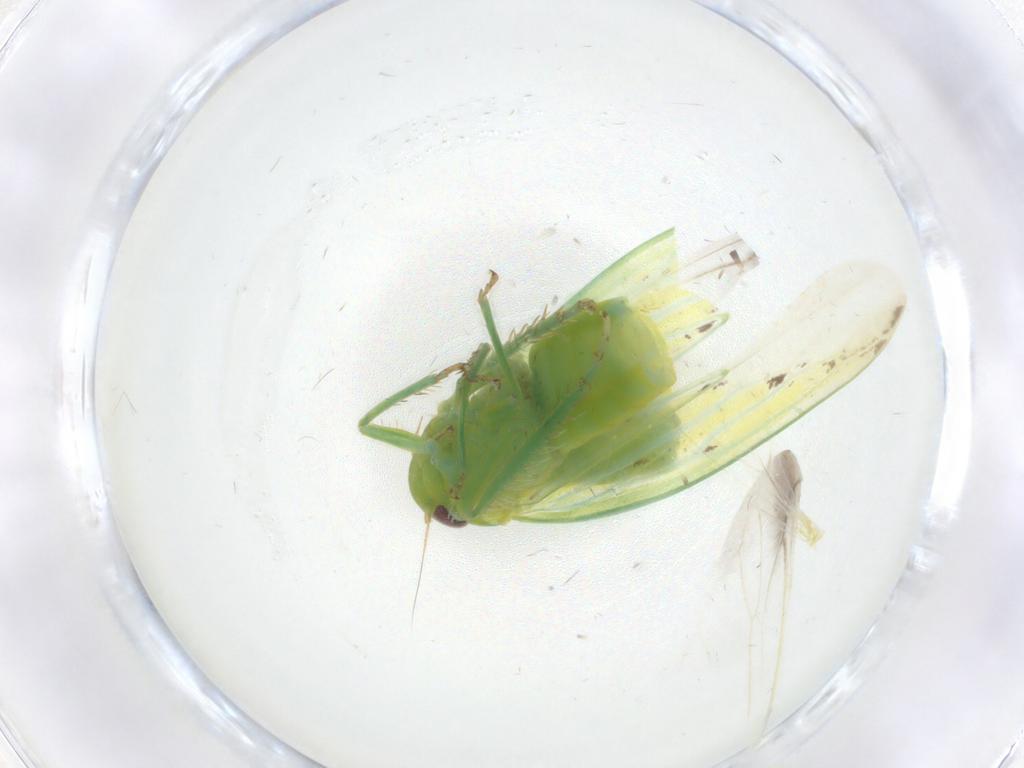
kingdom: Animalia
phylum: Arthropoda
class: Insecta
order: Hemiptera
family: Cicadellidae
